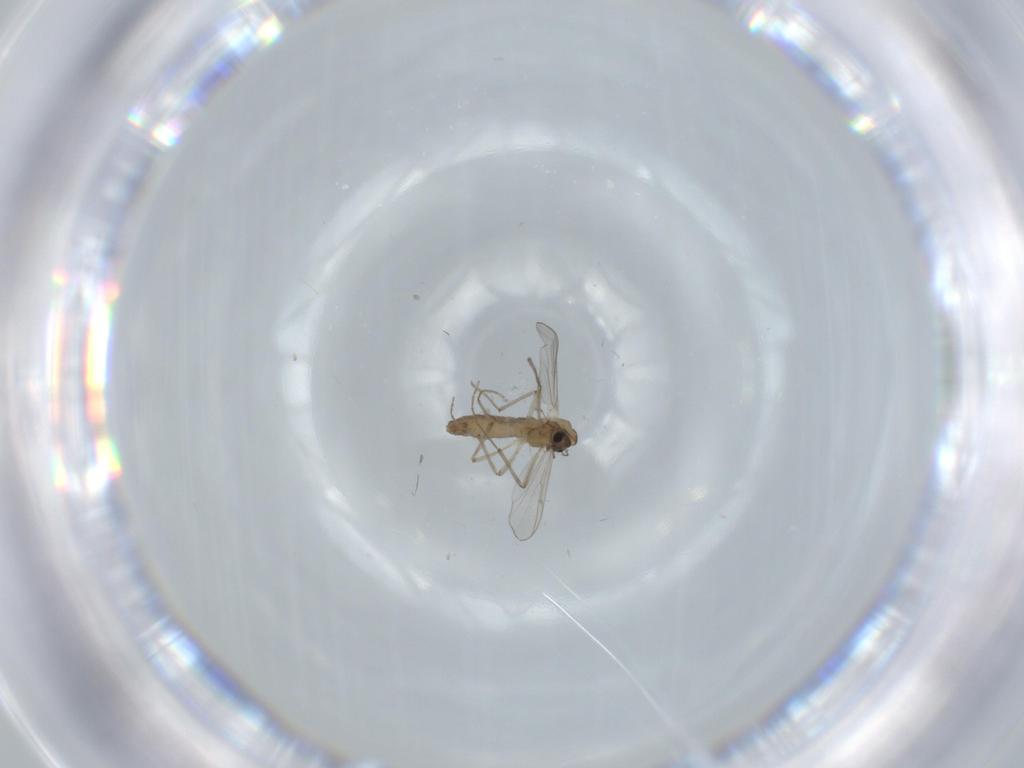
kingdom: Animalia
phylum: Arthropoda
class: Insecta
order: Diptera
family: Chironomidae
